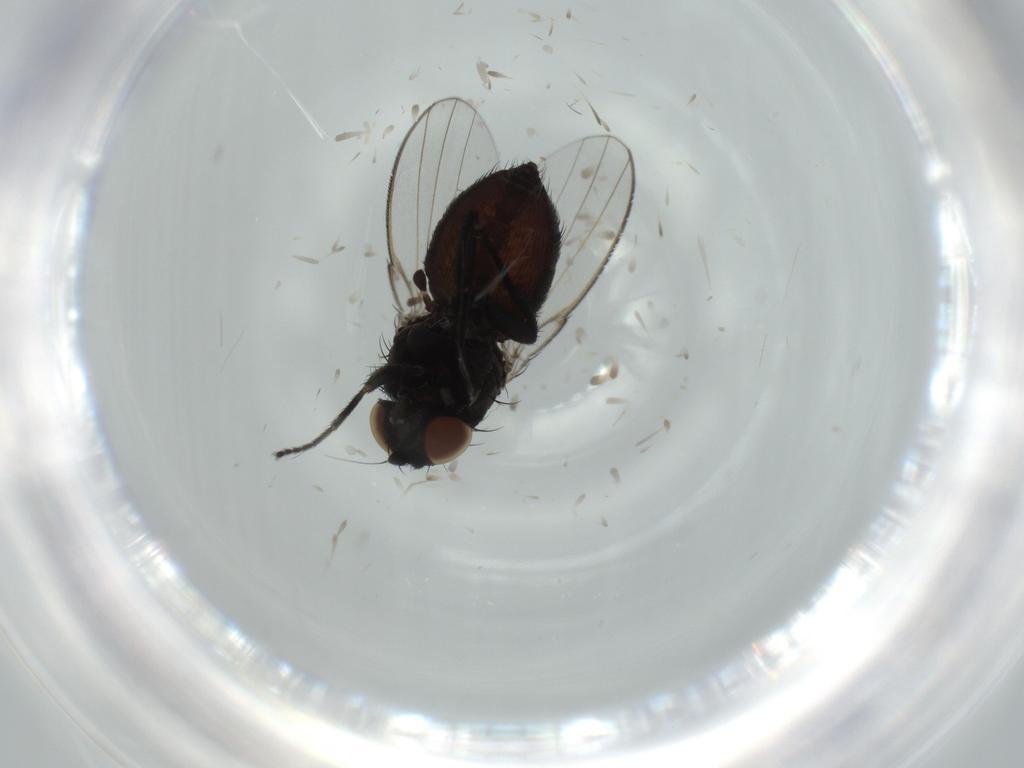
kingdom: Animalia
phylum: Arthropoda
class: Insecta
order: Diptera
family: Milichiidae
